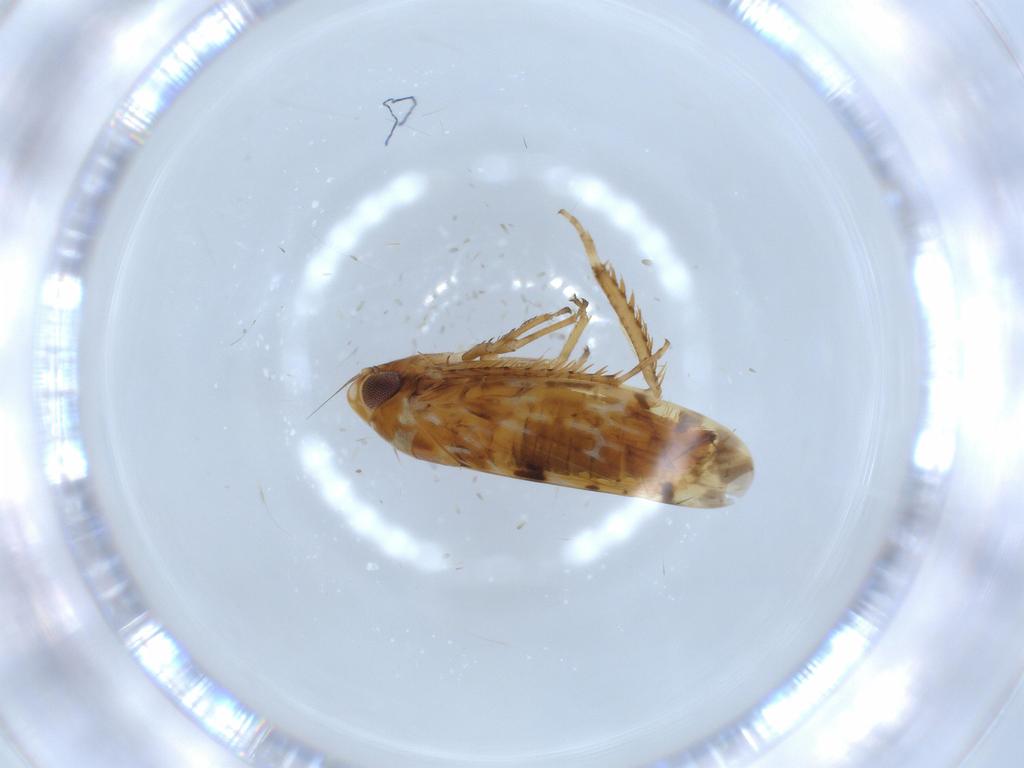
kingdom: Animalia
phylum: Arthropoda
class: Insecta
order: Hemiptera
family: Cicadellidae
